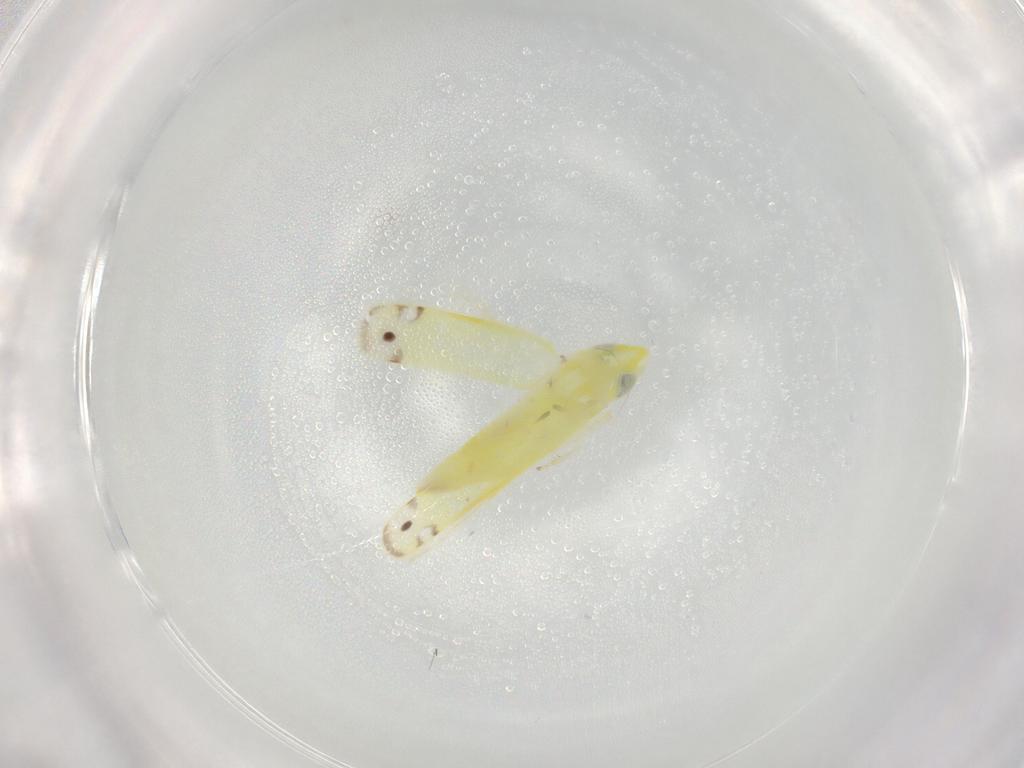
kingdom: Animalia
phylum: Arthropoda
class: Insecta
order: Hemiptera
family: Cicadellidae
